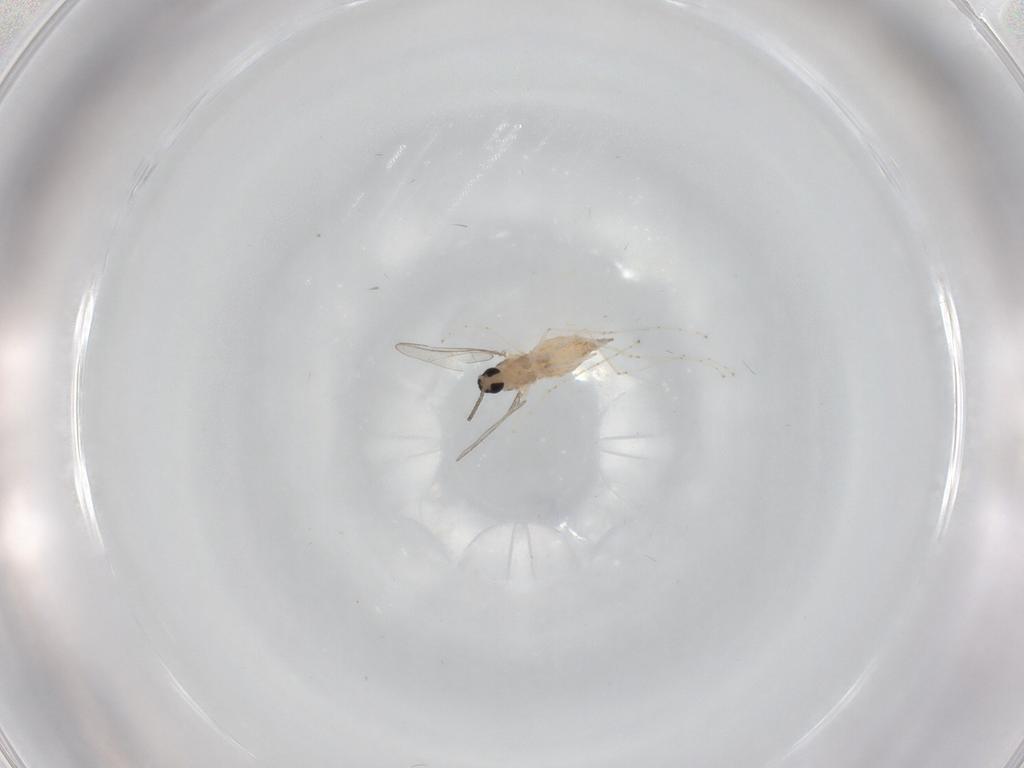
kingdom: Animalia
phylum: Arthropoda
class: Insecta
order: Diptera
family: Cecidomyiidae
